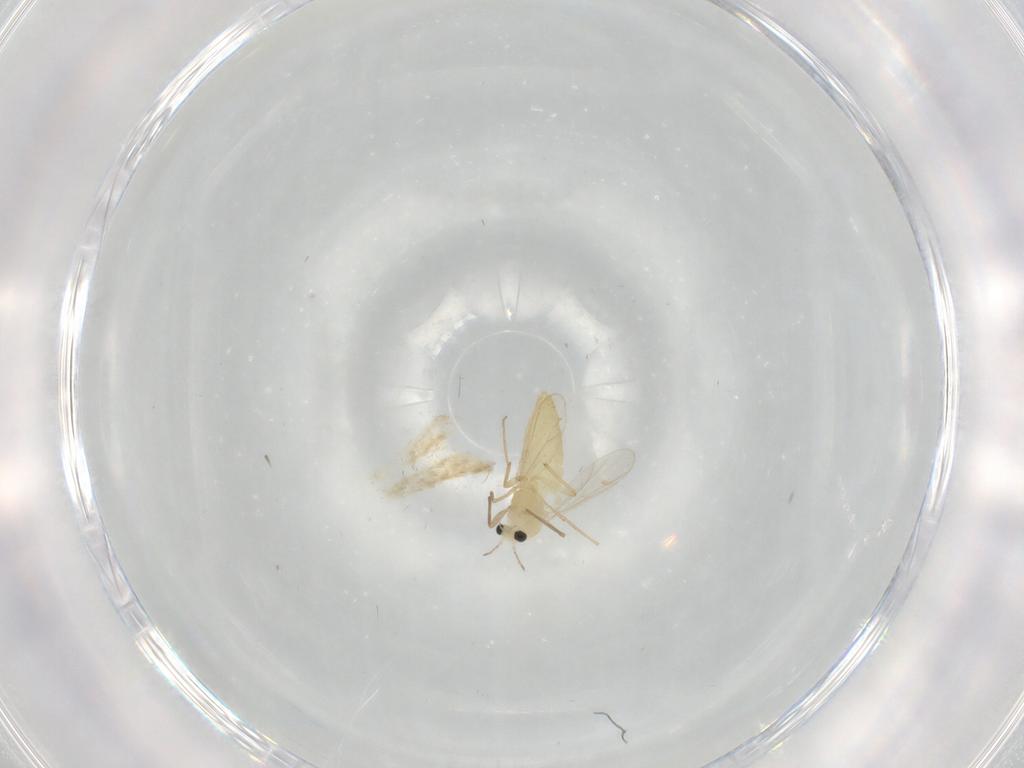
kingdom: Animalia
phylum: Arthropoda
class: Insecta
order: Diptera
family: Chironomidae
